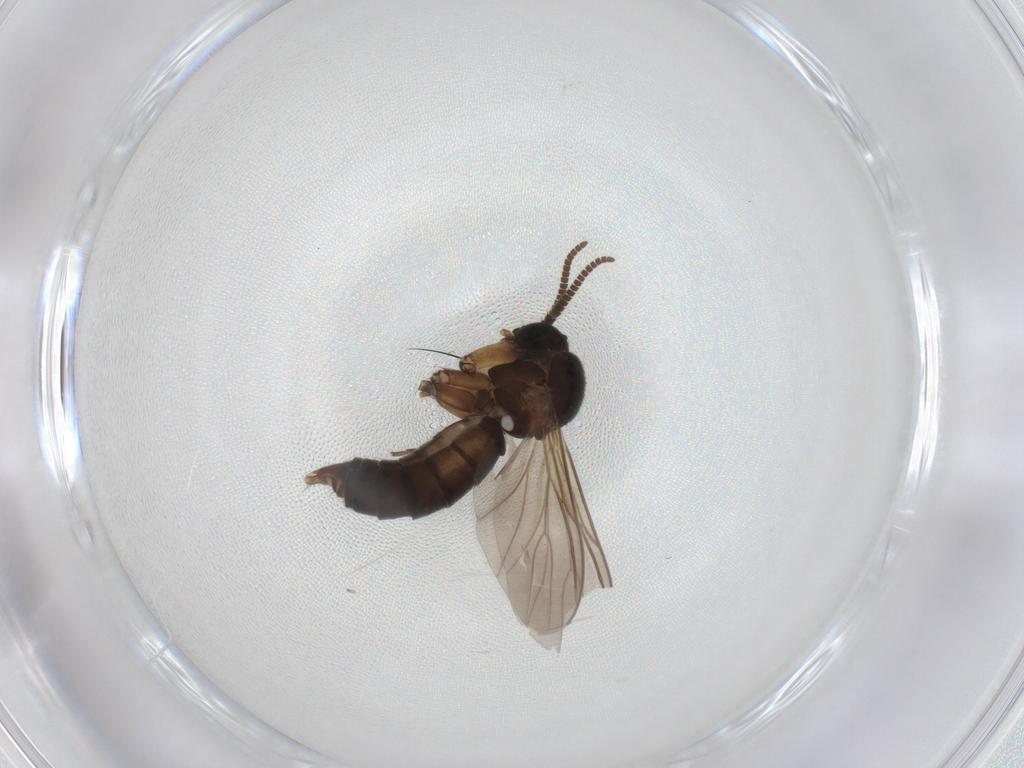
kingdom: Animalia
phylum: Arthropoda
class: Insecta
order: Diptera
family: Mycetophilidae
